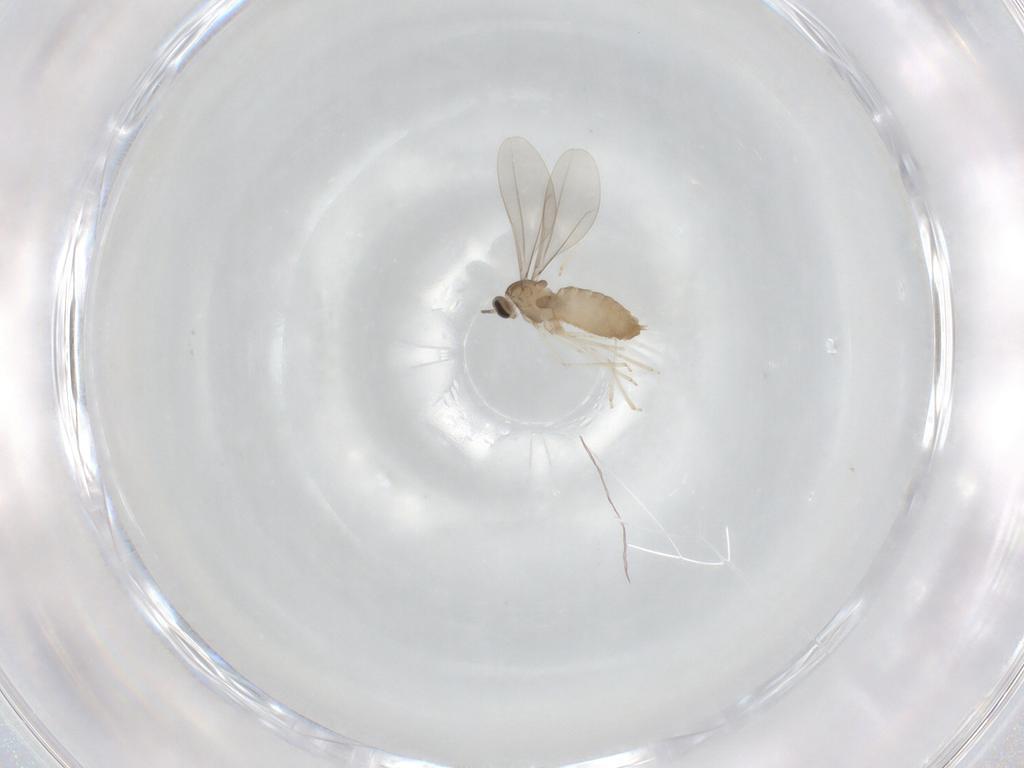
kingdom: Animalia
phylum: Arthropoda
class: Insecta
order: Diptera
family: Cecidomyiidae
